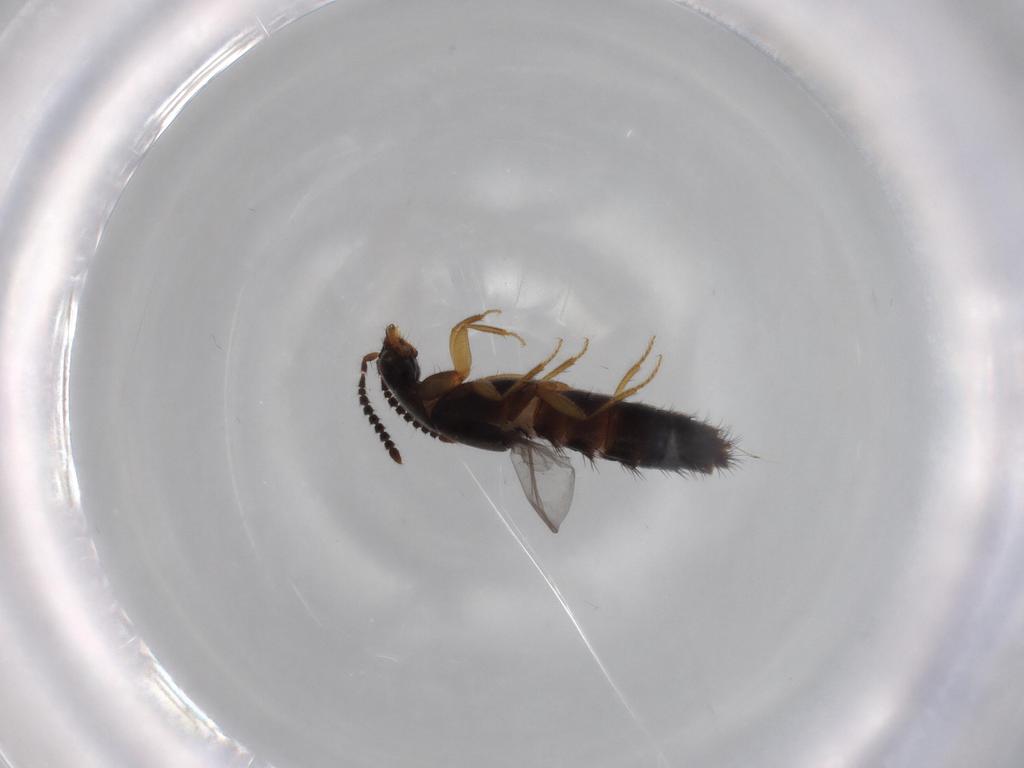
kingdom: Animalia
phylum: Arthropoda
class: Insecta
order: Coleoptera
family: Staphylinidae
